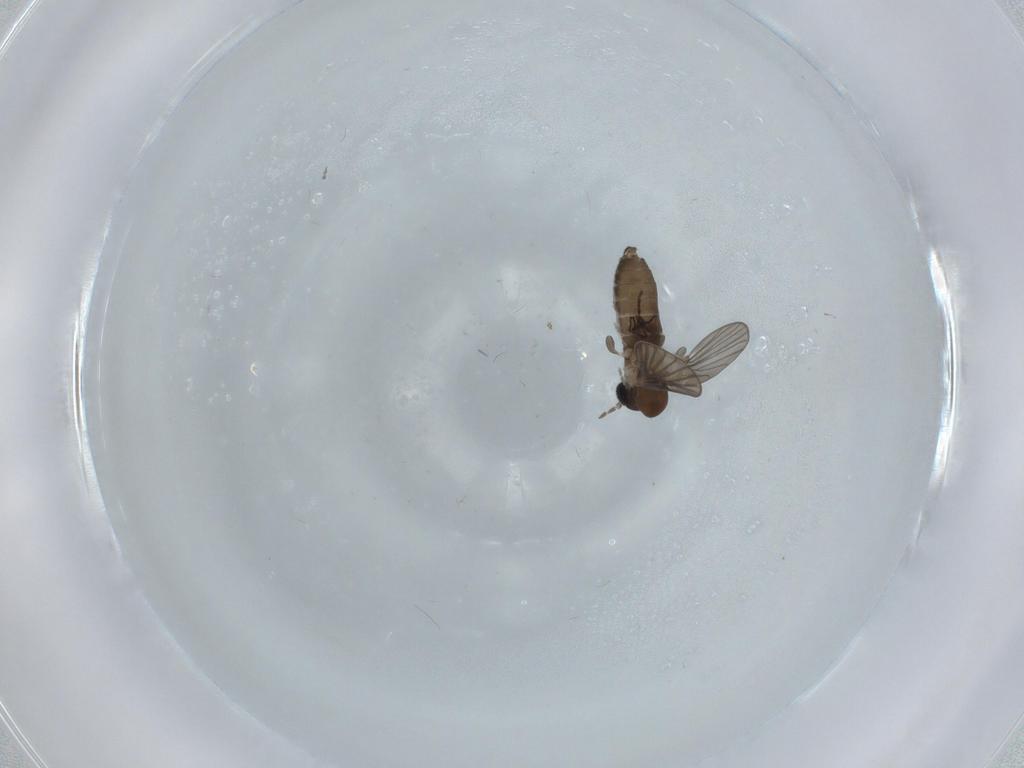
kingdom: Animalia
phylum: Arthropoda
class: Insecta
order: Diptera
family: Psychodidae
